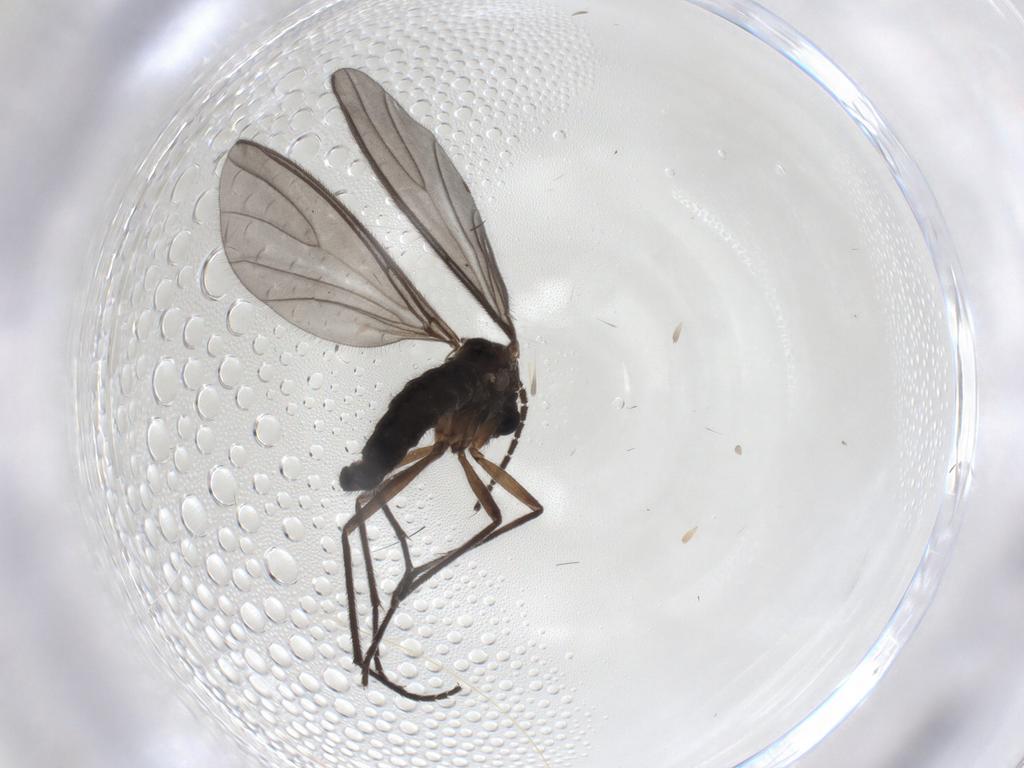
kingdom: Animalia
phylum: Arthropoda
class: Insecta
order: Diptera
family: Sciaridae
